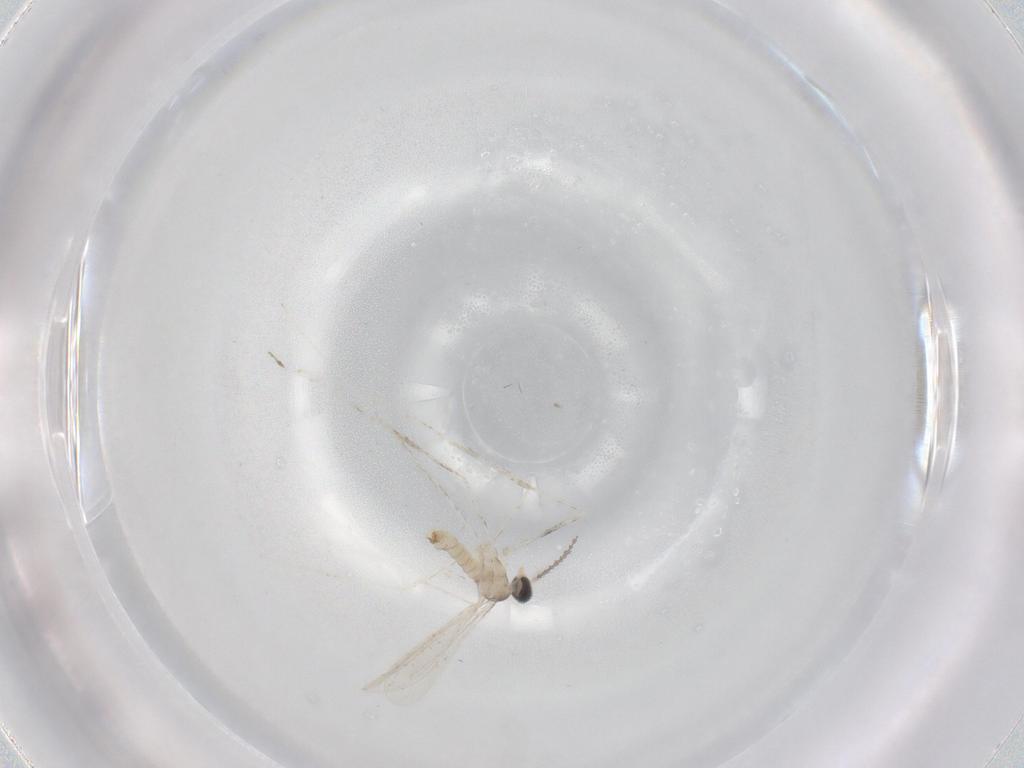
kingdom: Animalia
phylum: Arthropoda
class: Insecta
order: Diptera
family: Cecidomyiidae
